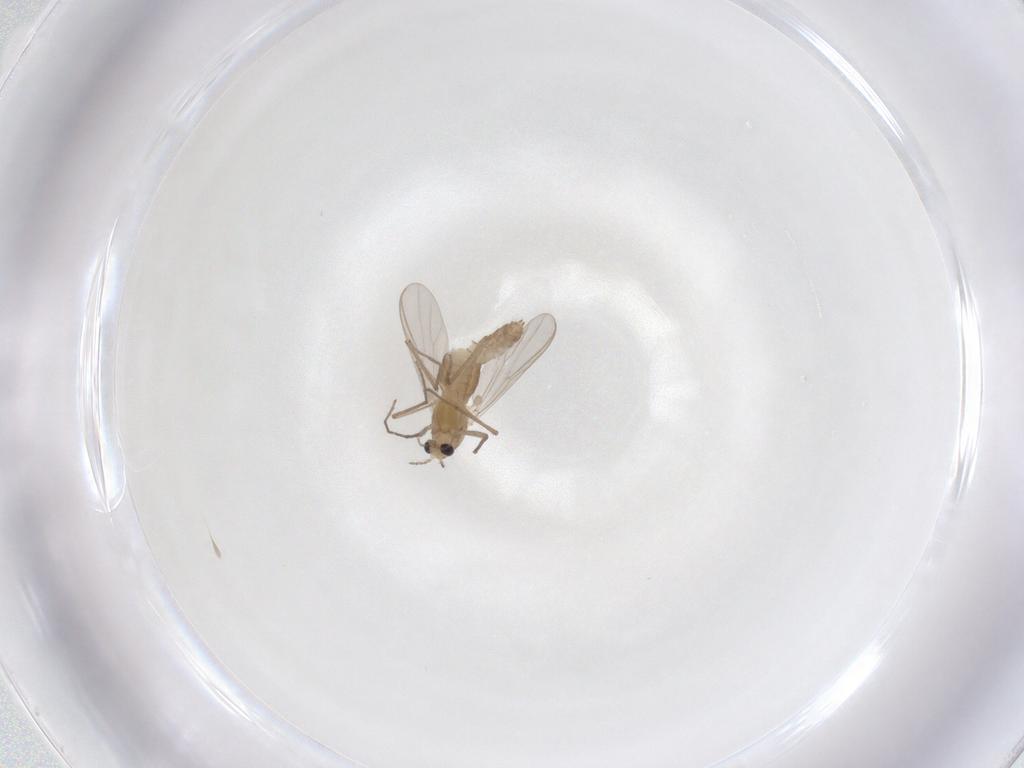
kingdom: Animalia
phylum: Arthropoda
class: Insecta
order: Diptera
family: Chironomidae
